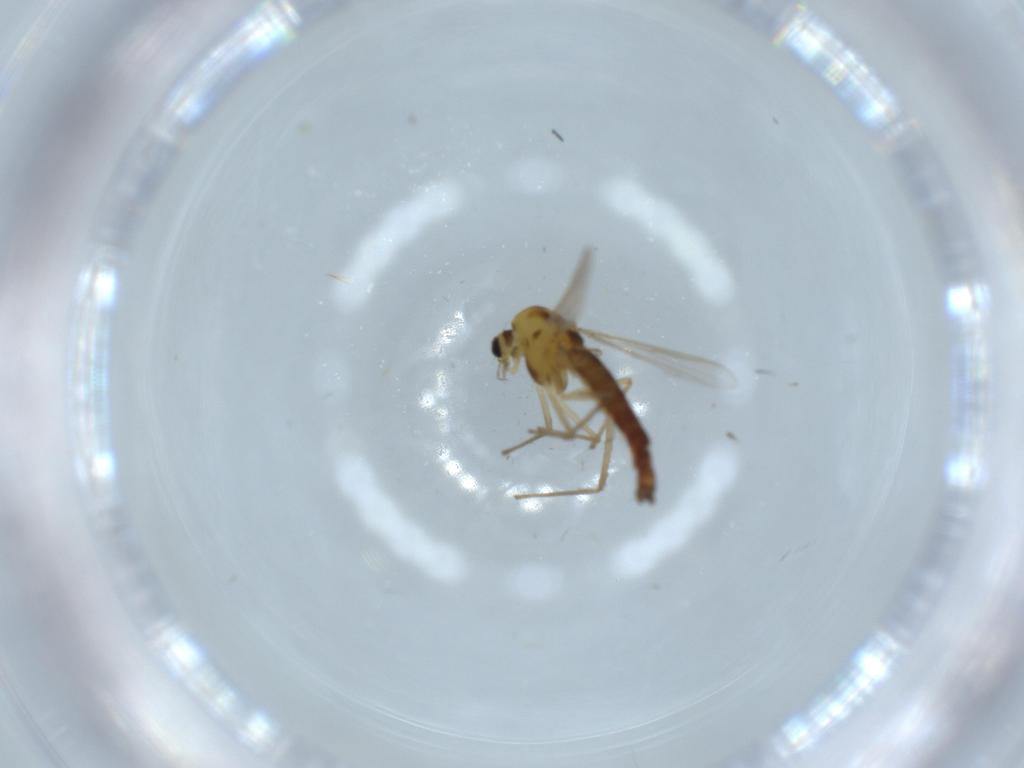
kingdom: Animalia
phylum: Arthropoda
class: Insecta
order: Diptera
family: Chironomidae
